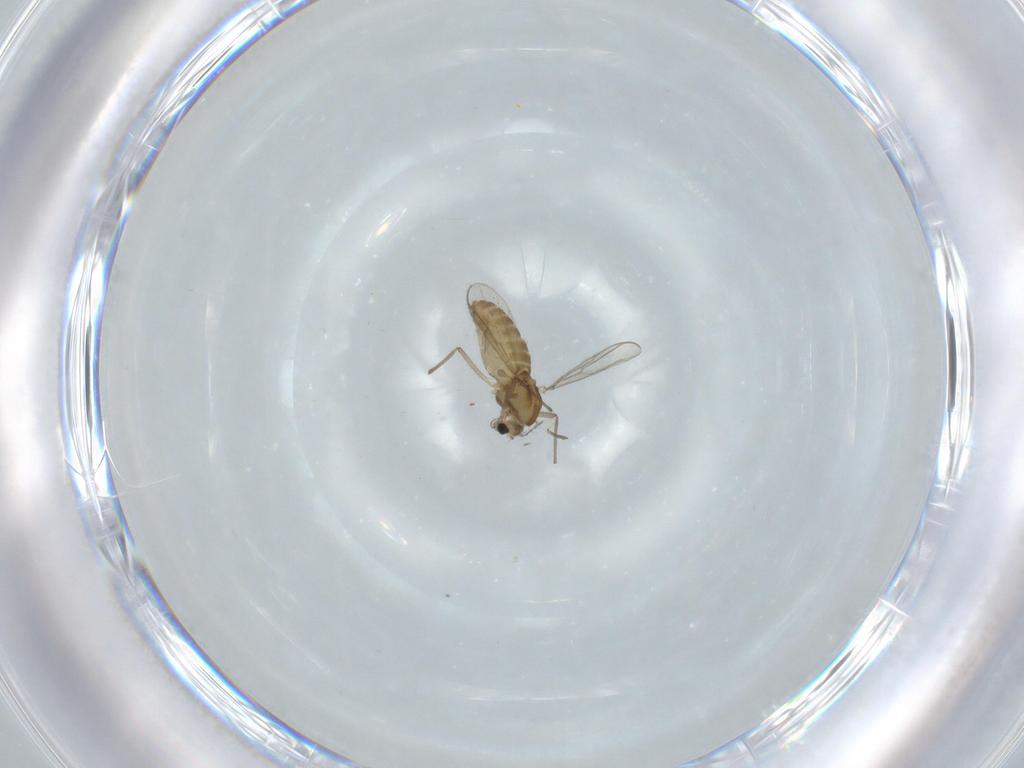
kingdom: Animalia
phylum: Arthropoda
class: Insecta
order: Diptera
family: Chironomidae
